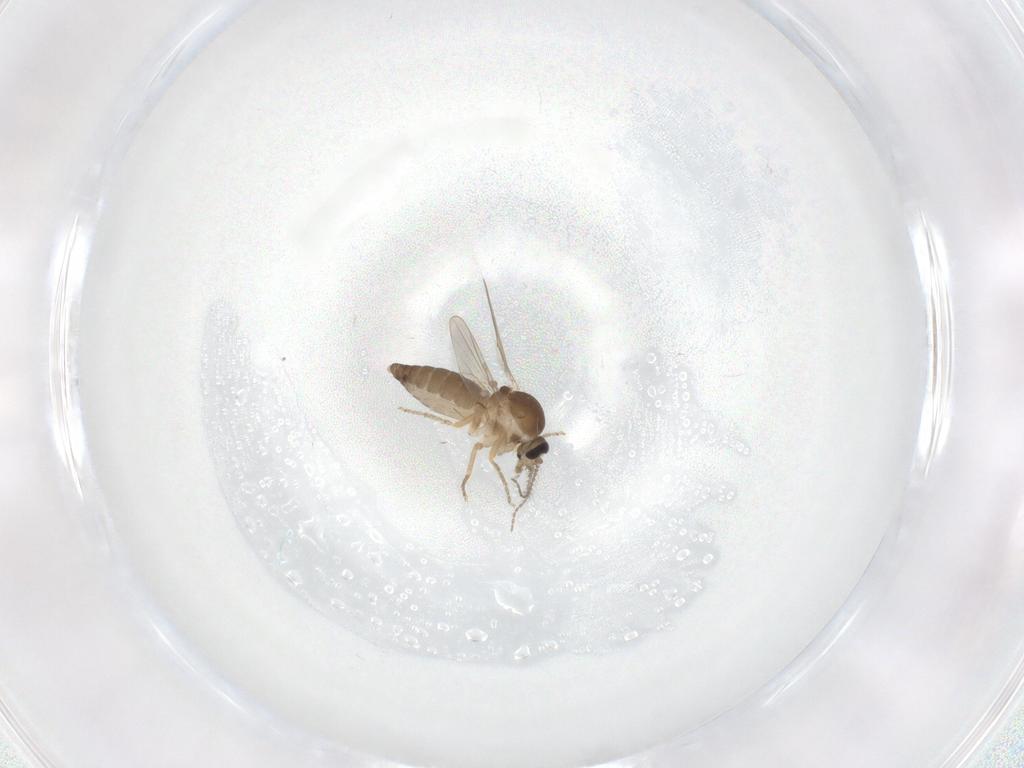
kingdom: Animalia
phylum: Arthropoda
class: Insecta
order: Diptera
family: Ceratopogonidae
